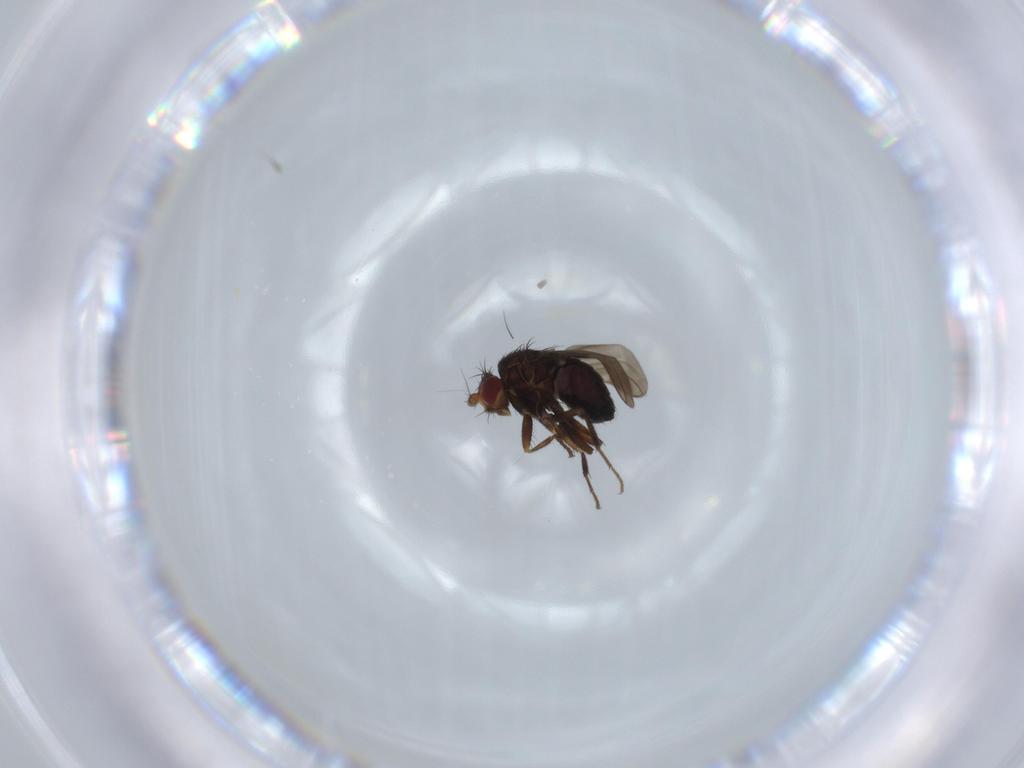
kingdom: Animalia
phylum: Arthropoda
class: Insecta
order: Diptera
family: Sphaeroceridae
